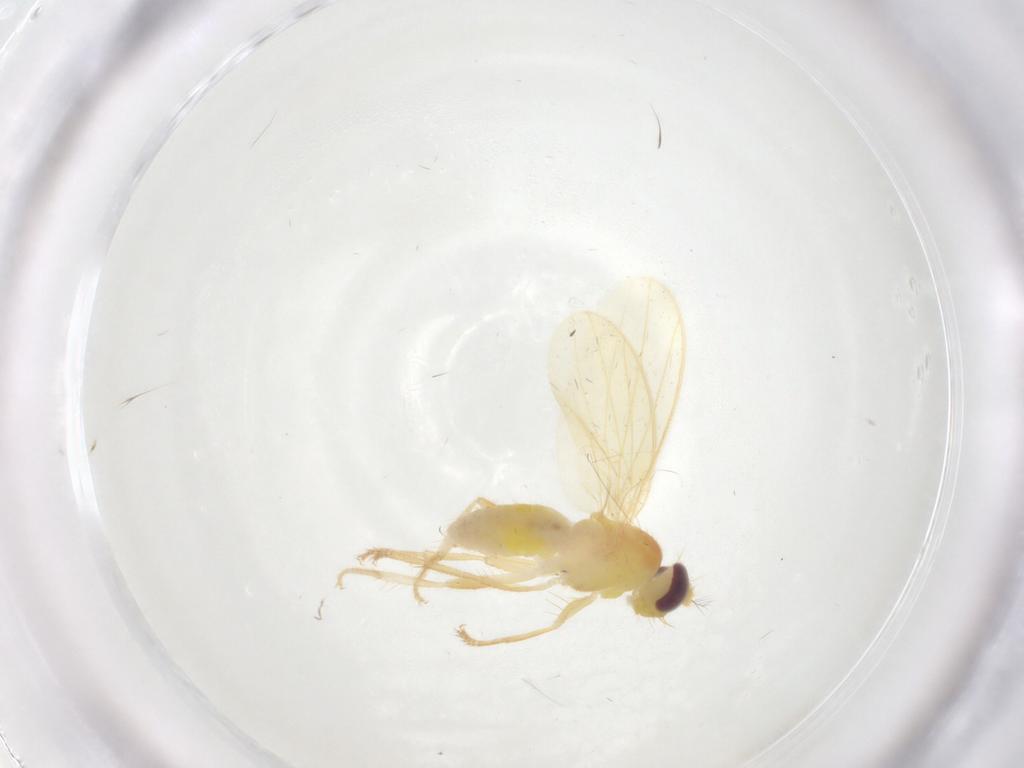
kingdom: Animalia
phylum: Arthropoda
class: Insecta
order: Diptera
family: Periscelididae
